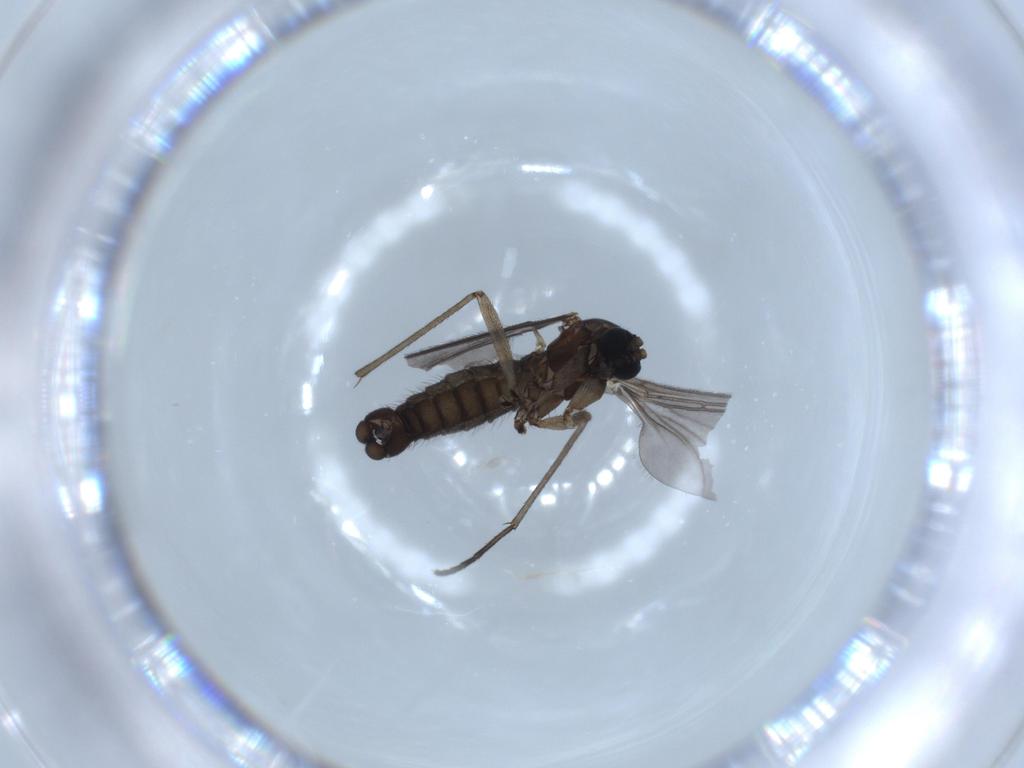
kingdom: Animalia
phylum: Arthropoda
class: Insecta
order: Diptera
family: Sciaridae
